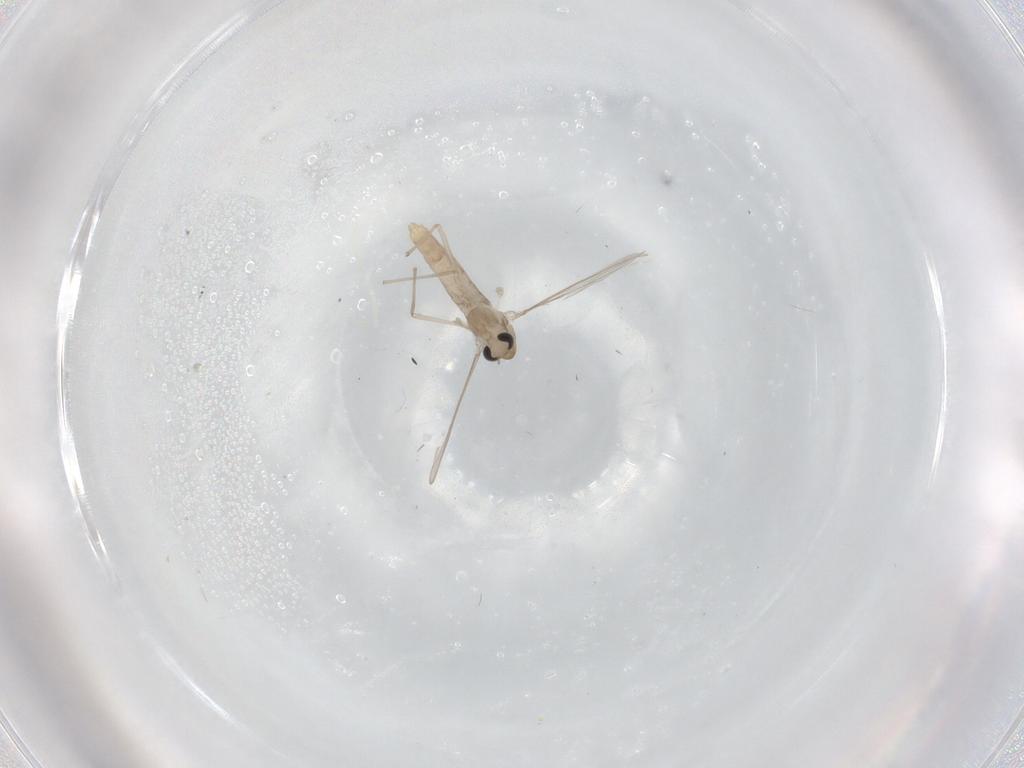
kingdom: Animalia
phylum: Arthropoda
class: Insecta
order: Diptera
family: Chironomidae
